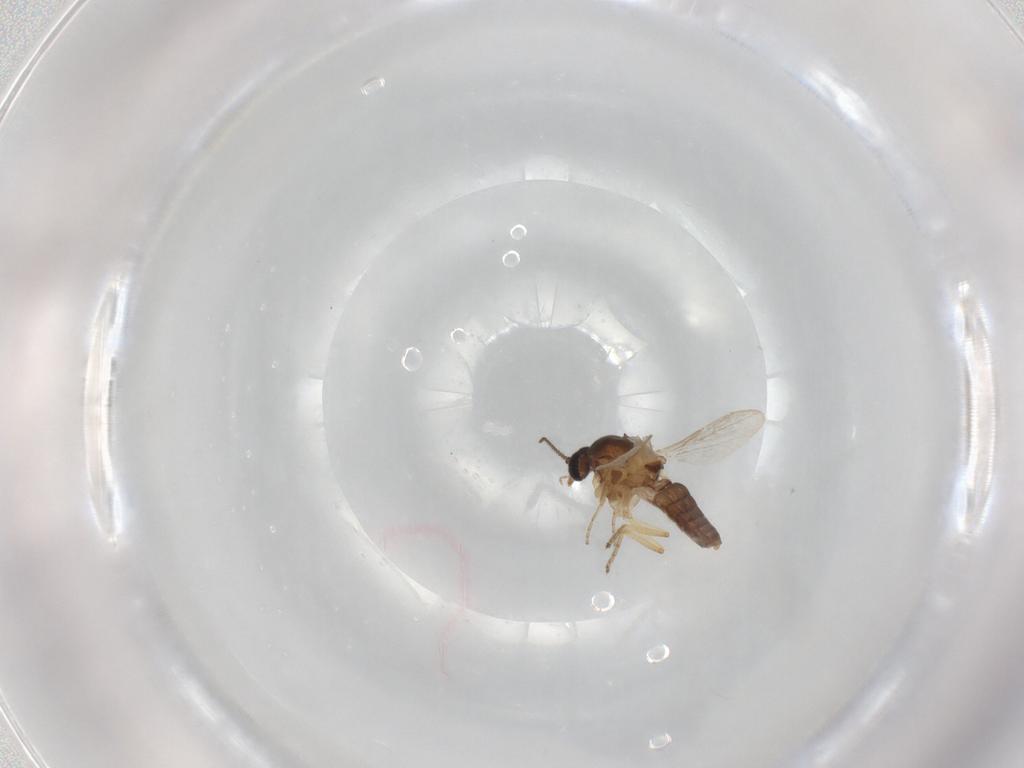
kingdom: Animalia
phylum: Arthropoda
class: Insecta
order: Diptera
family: Ceratopogonidae
